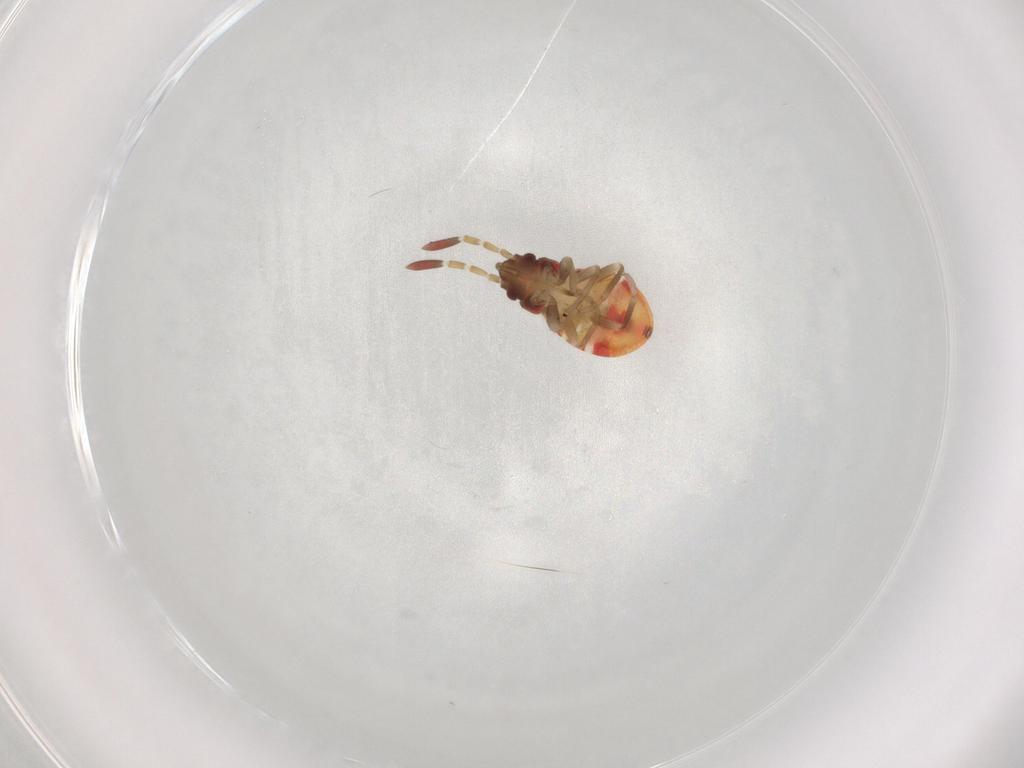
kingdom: Animalia
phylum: Arthropoda
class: Insecta
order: Hemiptera
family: Rhyparochromidae
